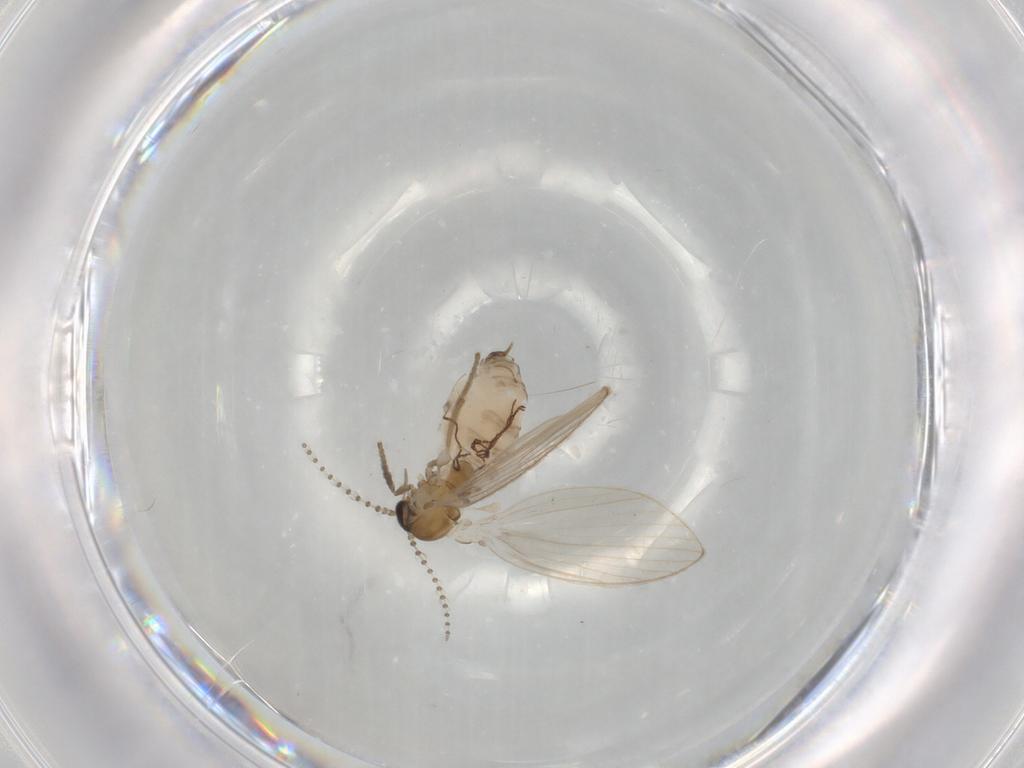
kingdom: Animalia
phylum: Arthropoda
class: Insecta
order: Diptera
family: Psychodidae
